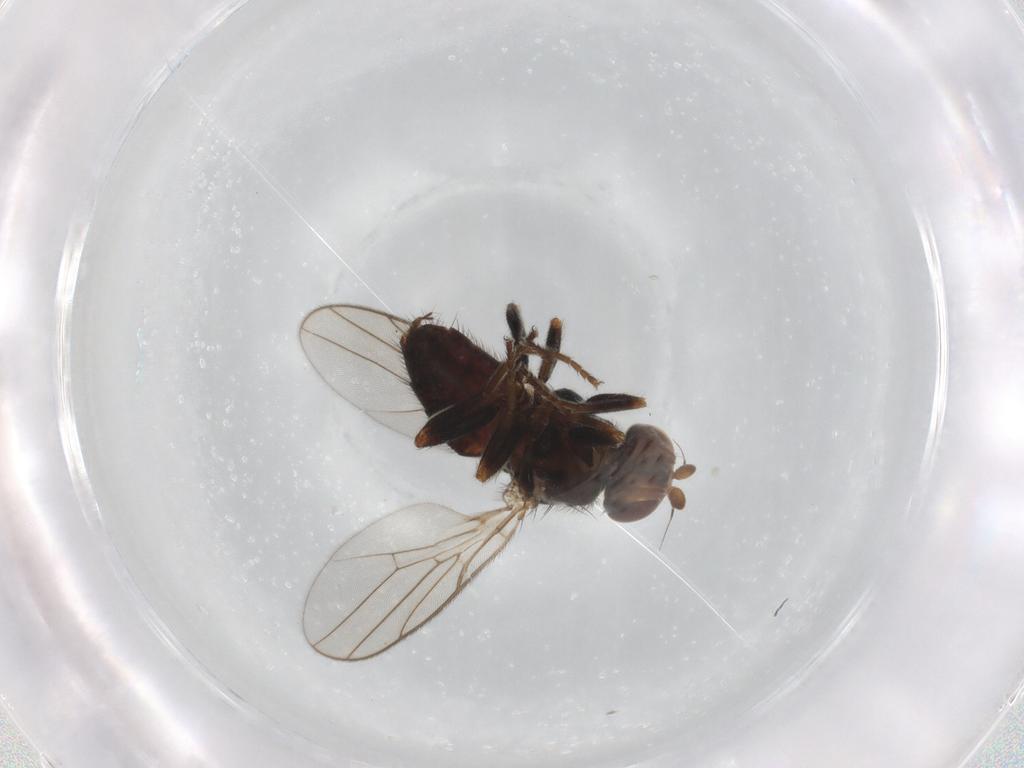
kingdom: Animalia
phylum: Arthropoda
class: Insecta
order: Diptera
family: Chloropidae
